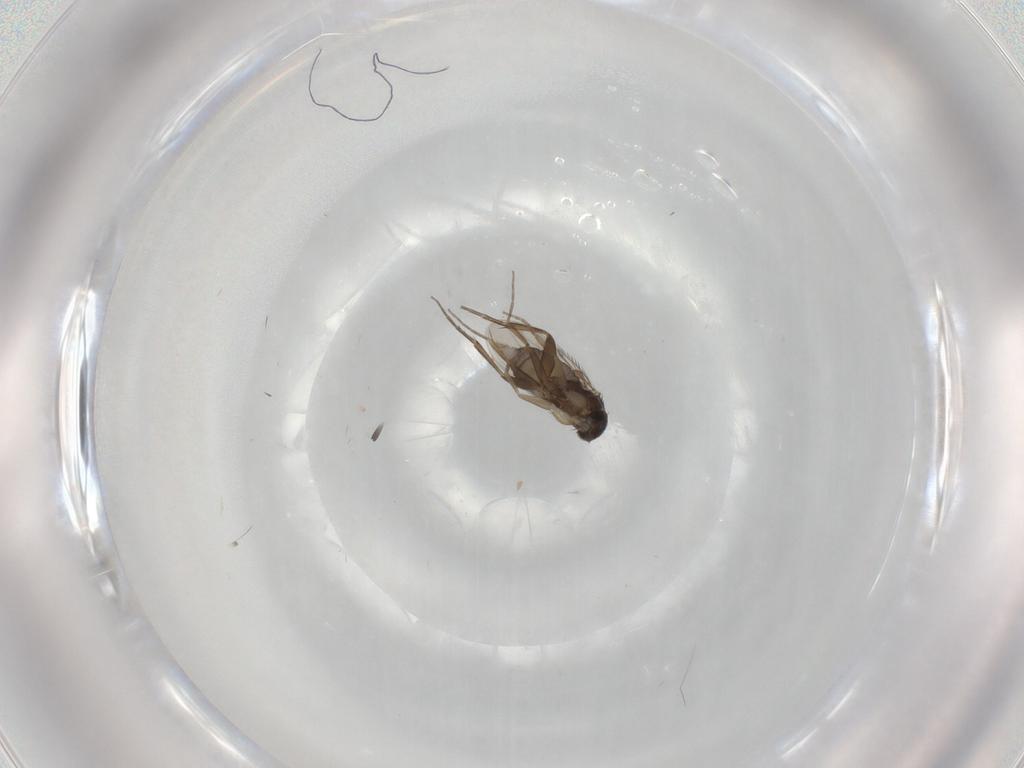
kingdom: Animalia
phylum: Arthropoda
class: Insecta
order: Diptera
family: Phoridae
